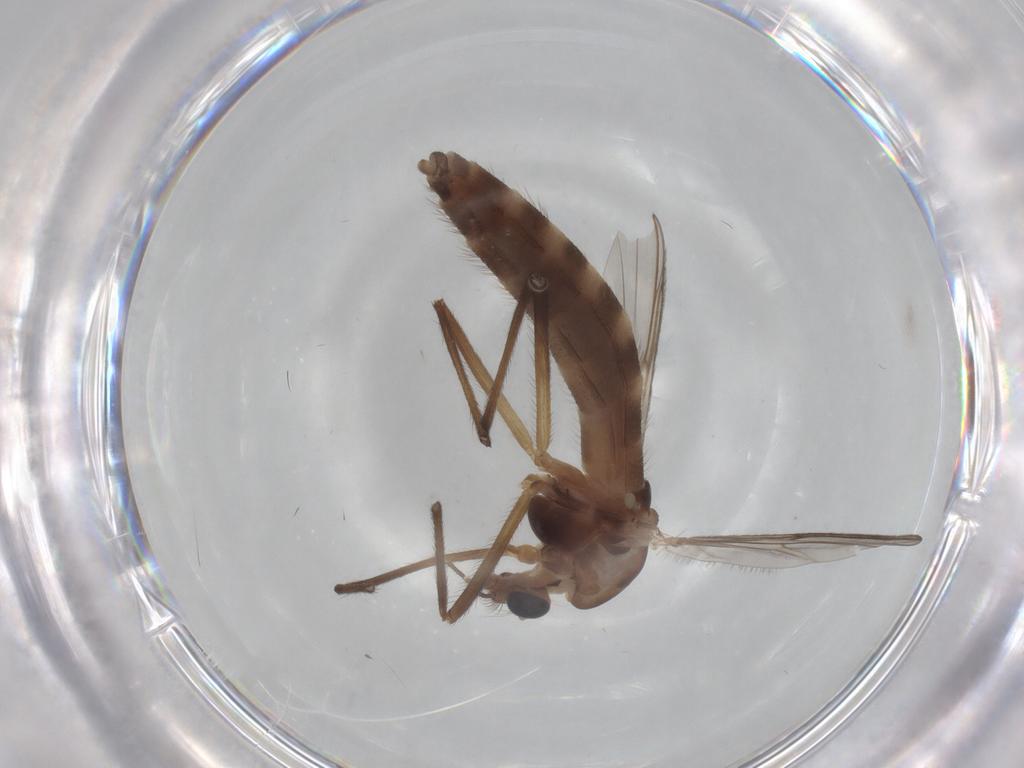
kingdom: Animalia
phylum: Arthropoda
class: Insecta
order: Diptera
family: Chironomidae
